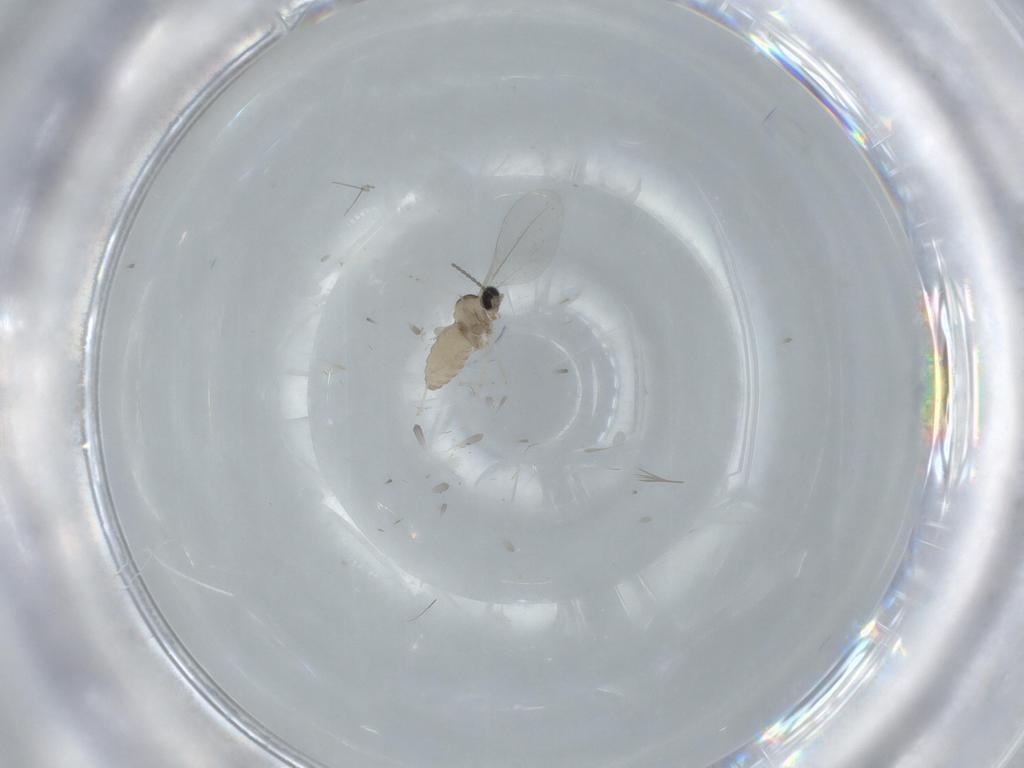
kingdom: Animalia
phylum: Arthropoda
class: Insecta
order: Diptera
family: Cecidomyiidae
